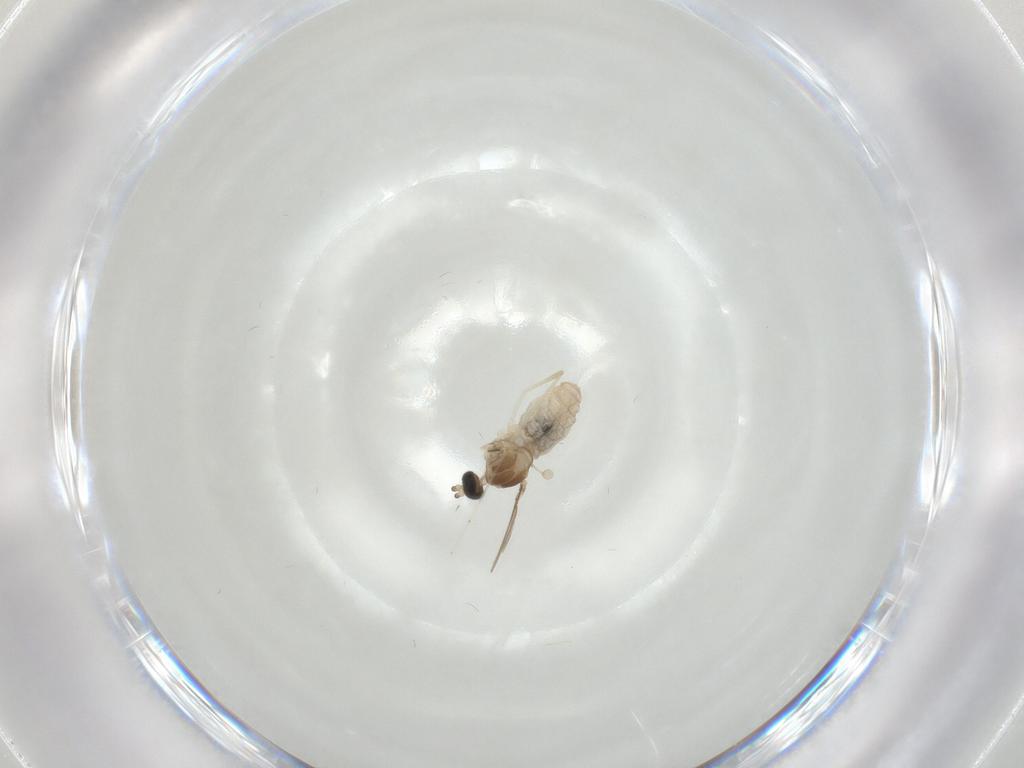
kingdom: Animalia
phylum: Arthropoda
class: Insecta
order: Diptera
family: Cecidomyiidae
